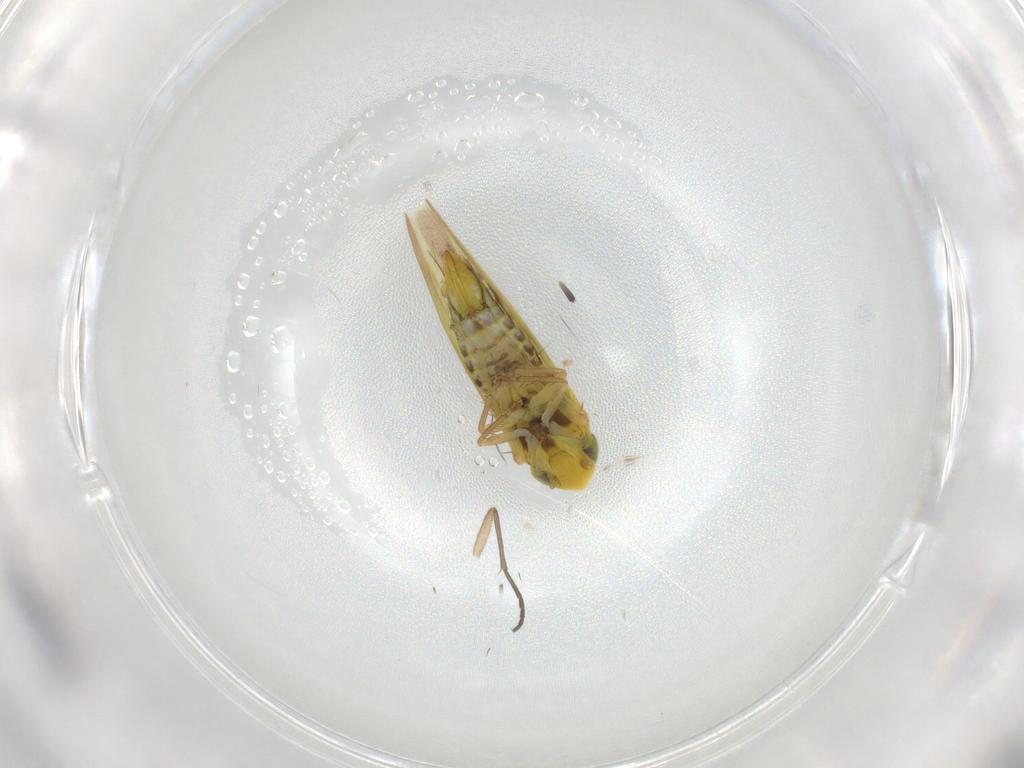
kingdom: Animalia
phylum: Arthropoda
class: Insecta
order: Hemiptera
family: Cicadellidae
